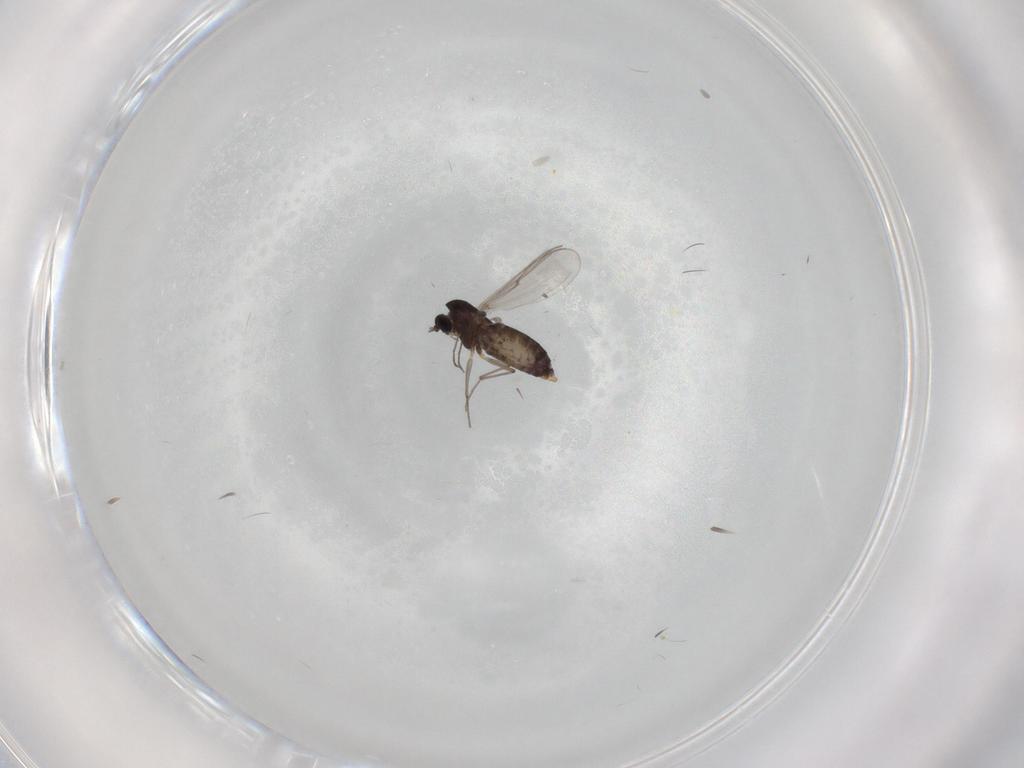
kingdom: Animalia
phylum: Arthropoda
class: Insecta
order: Diptera
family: Chironomidae
